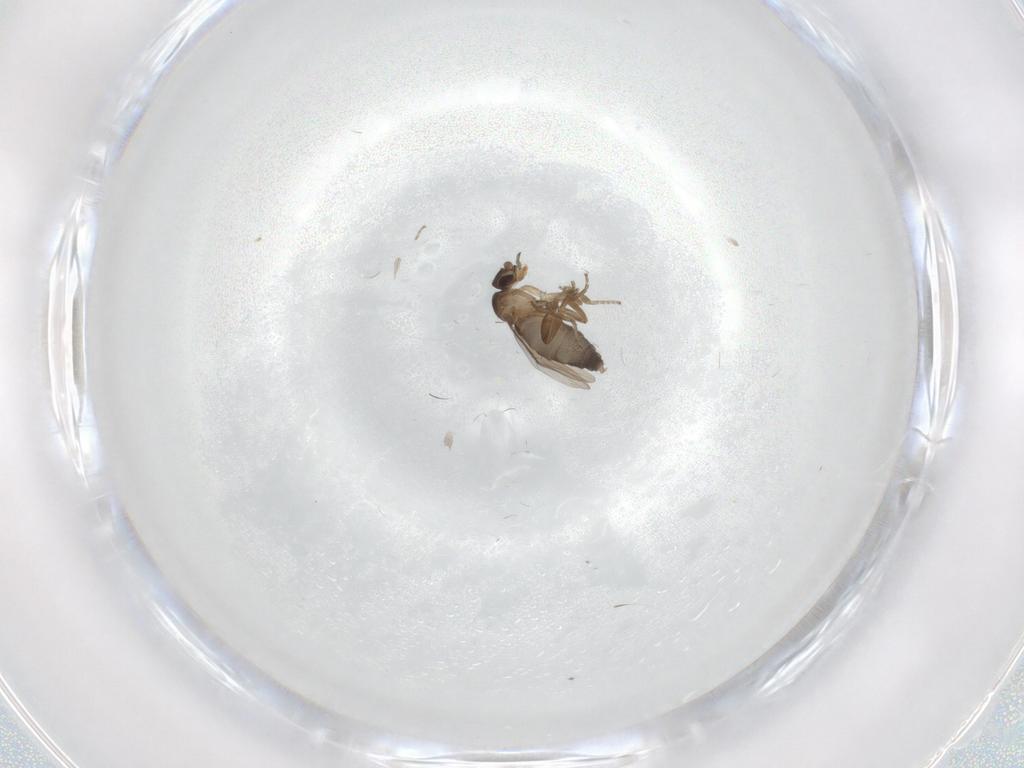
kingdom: Animalia
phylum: Arthropoda
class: Insecta
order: Diptera
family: Phoridae
